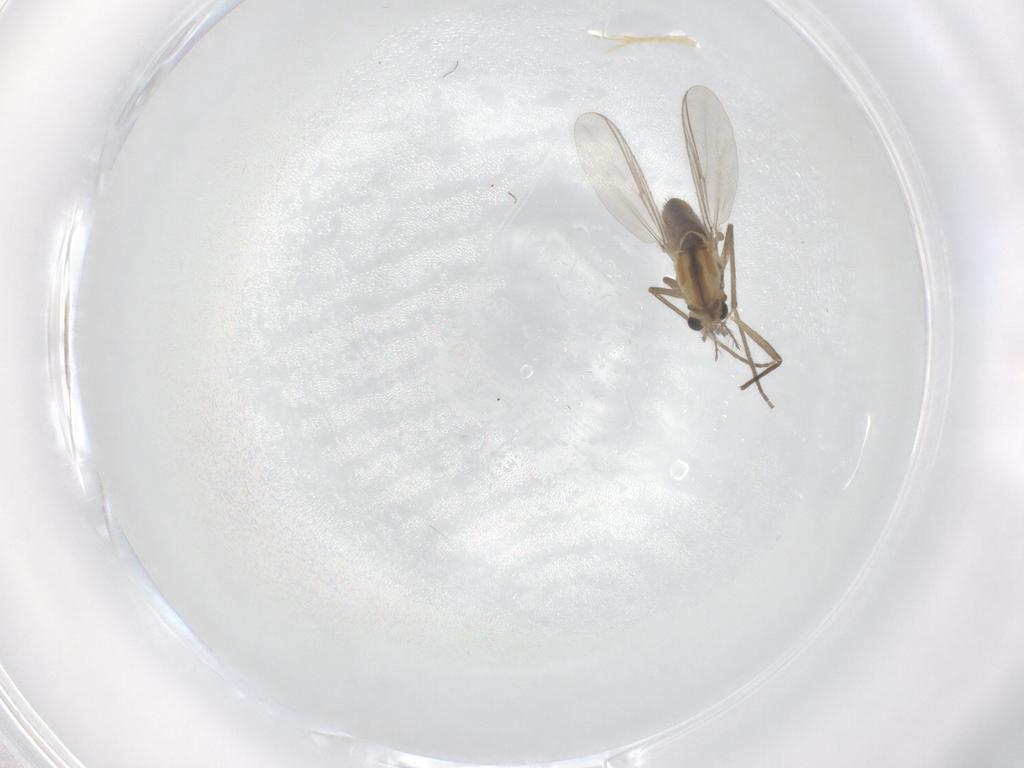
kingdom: Animalia
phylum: Arthropoda
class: Insecta
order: Diptera
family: Chironomidae
